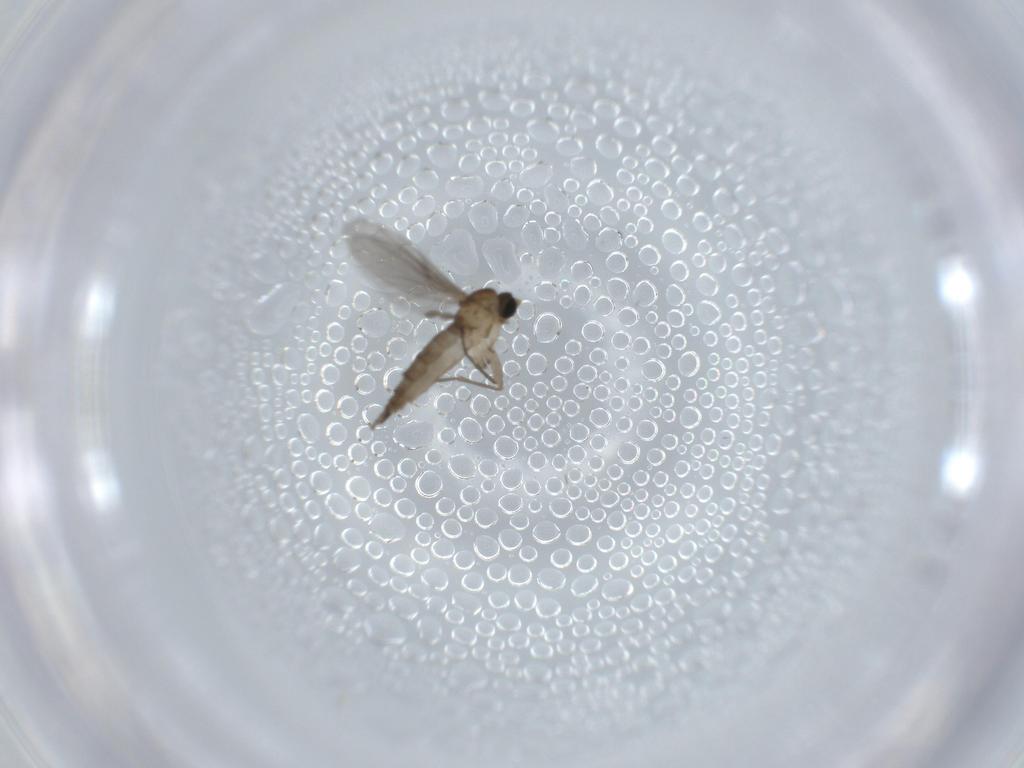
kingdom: Animalia
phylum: Arthropoda
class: Insecta
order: Diptera
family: Sciaridae
